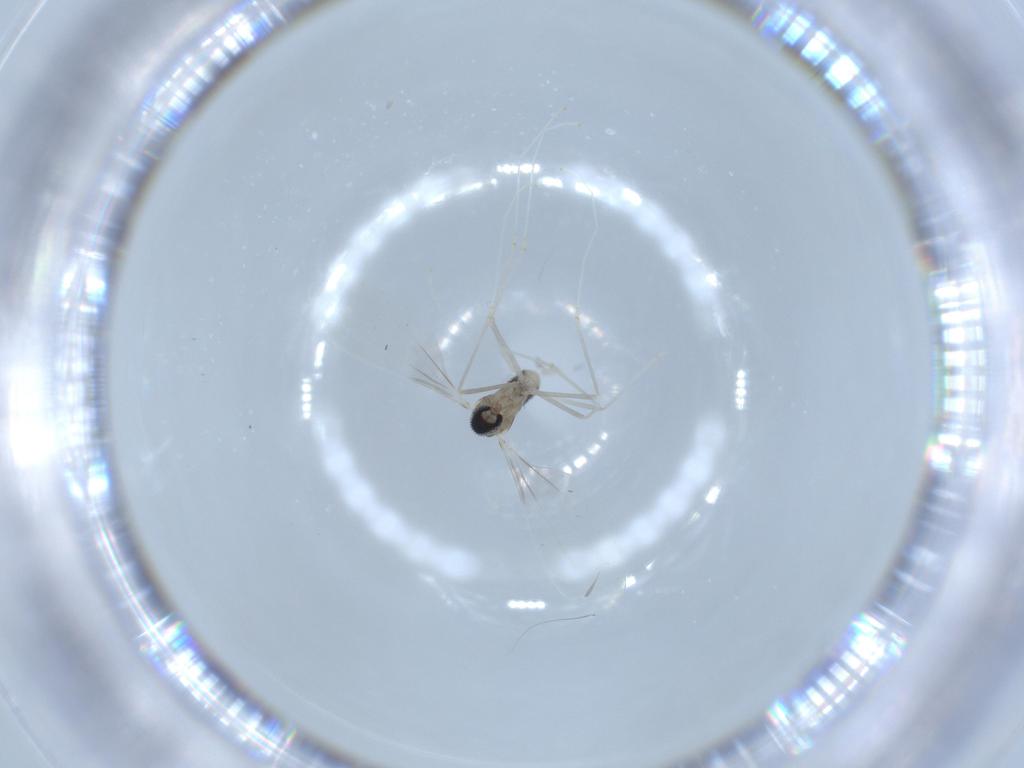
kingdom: Animalia
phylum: Arthropoda
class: Insecta
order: Diptera
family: Cecidomyiidae
